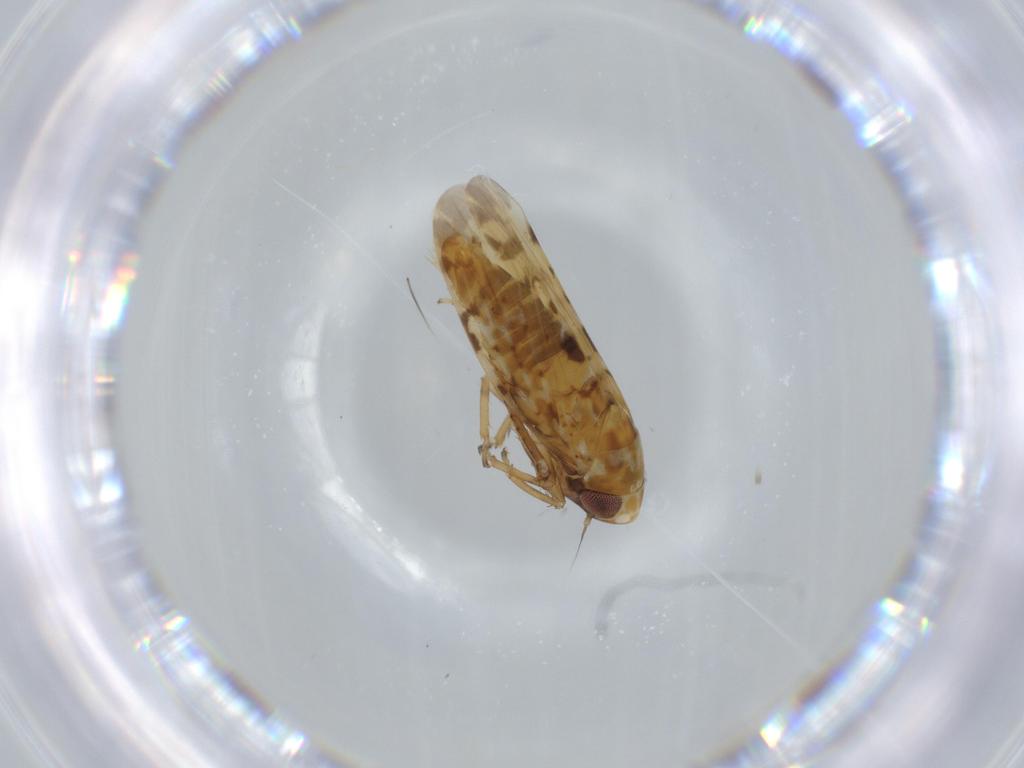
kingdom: Animalia
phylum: Arthropoda
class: Insecta
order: Hemiptera
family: Cicadellidae
